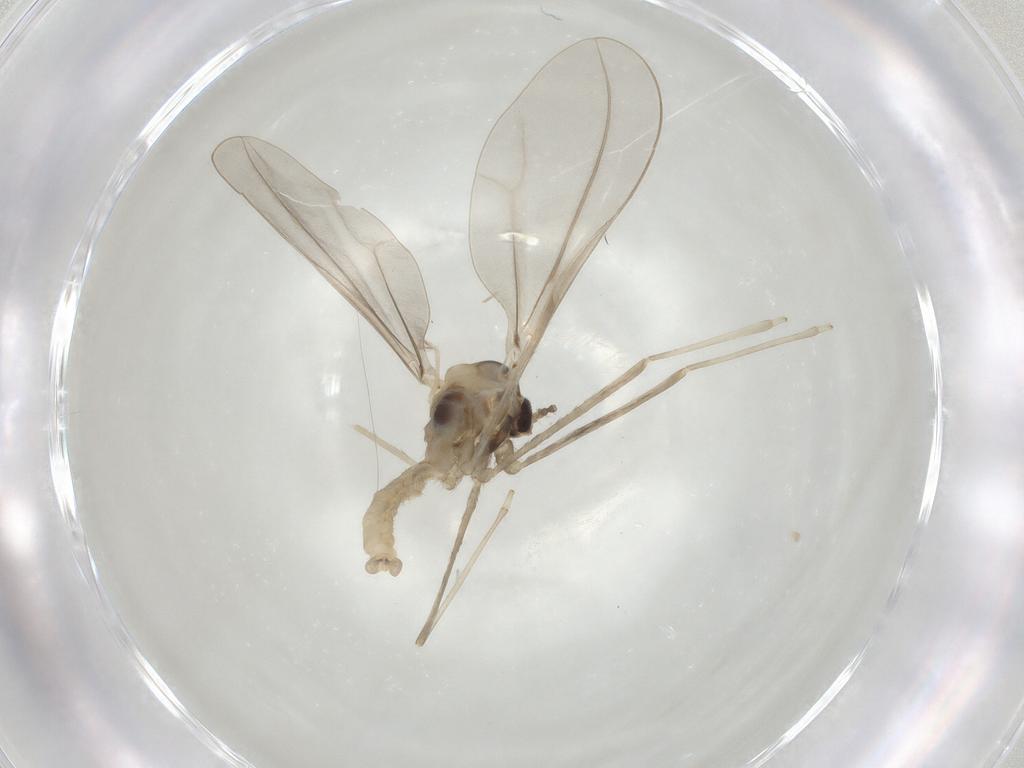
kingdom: Animalia
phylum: Arthropoda
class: Insecta
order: Diptera
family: Cecidomyiidae
